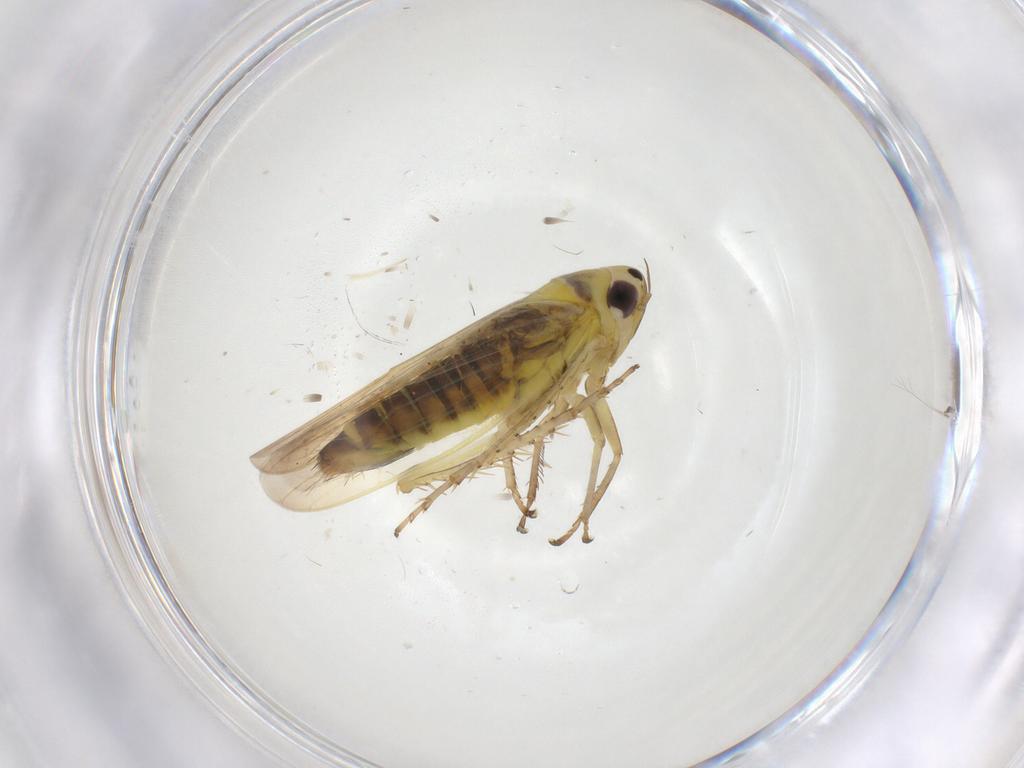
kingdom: Animalia
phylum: Arthropoda
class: Insecta
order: Hemiptera
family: Cicadellidae
